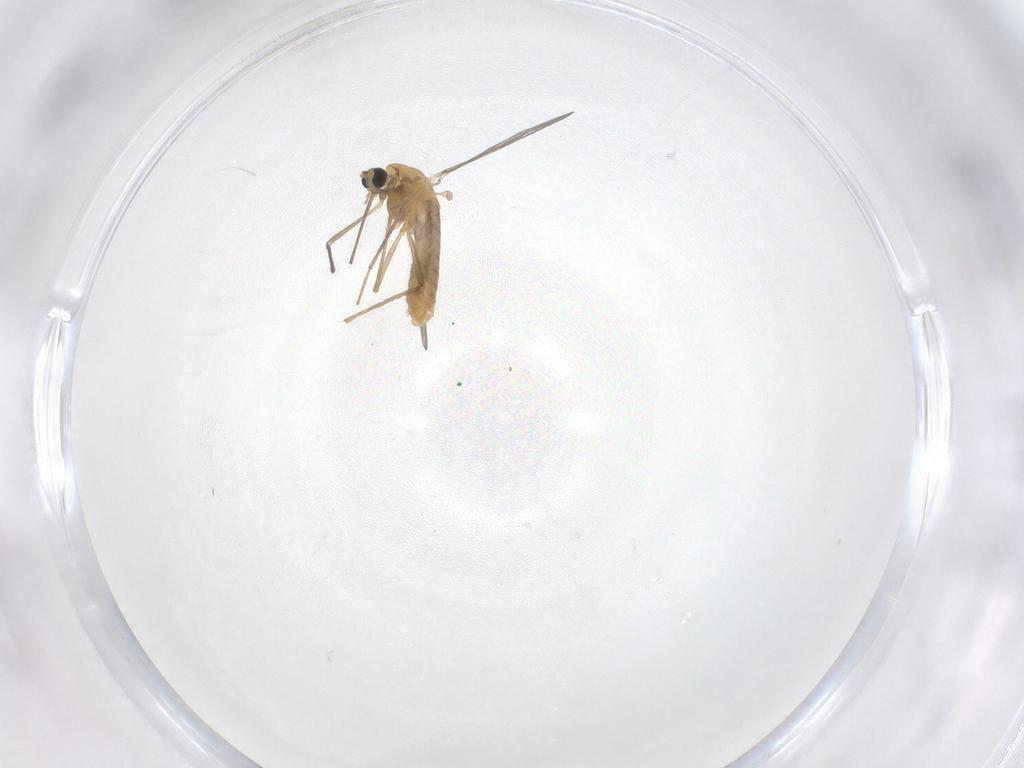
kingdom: Animalia
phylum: Arthropoda
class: Insecta
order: Diptera
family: Chironomidae
